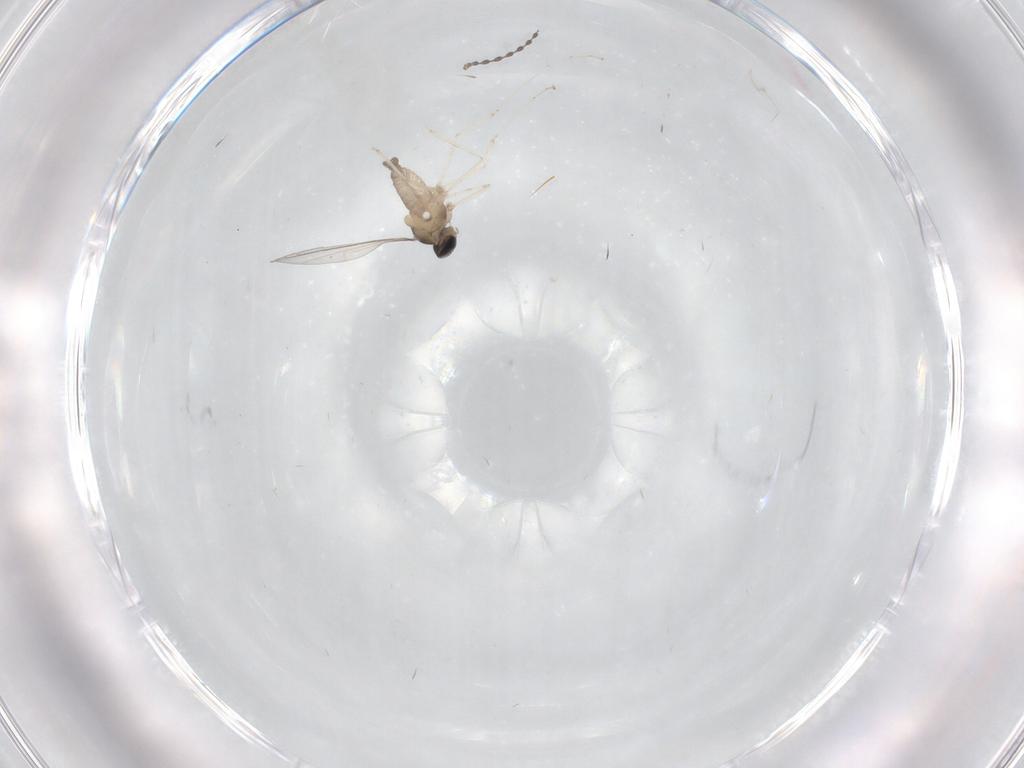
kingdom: Animalia
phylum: Arthropoda
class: Insecta
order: Diptera
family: Cecidomyiidae
